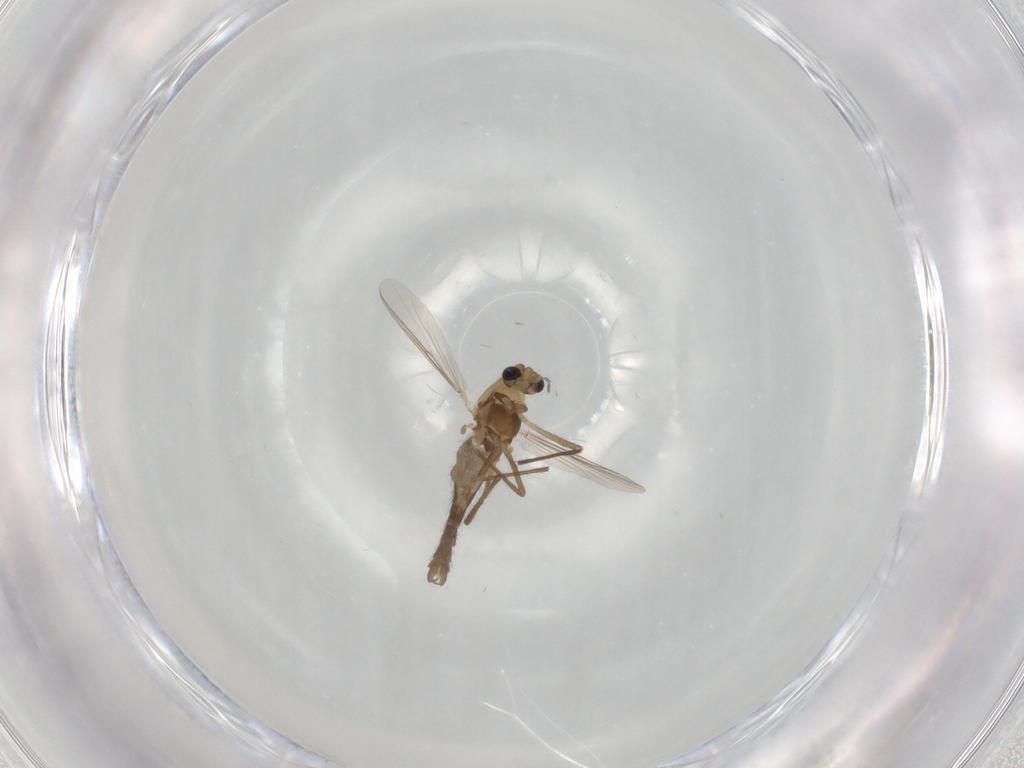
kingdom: Animalia
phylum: Arthropoda
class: Insecta
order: Diptera
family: Chironomidae
